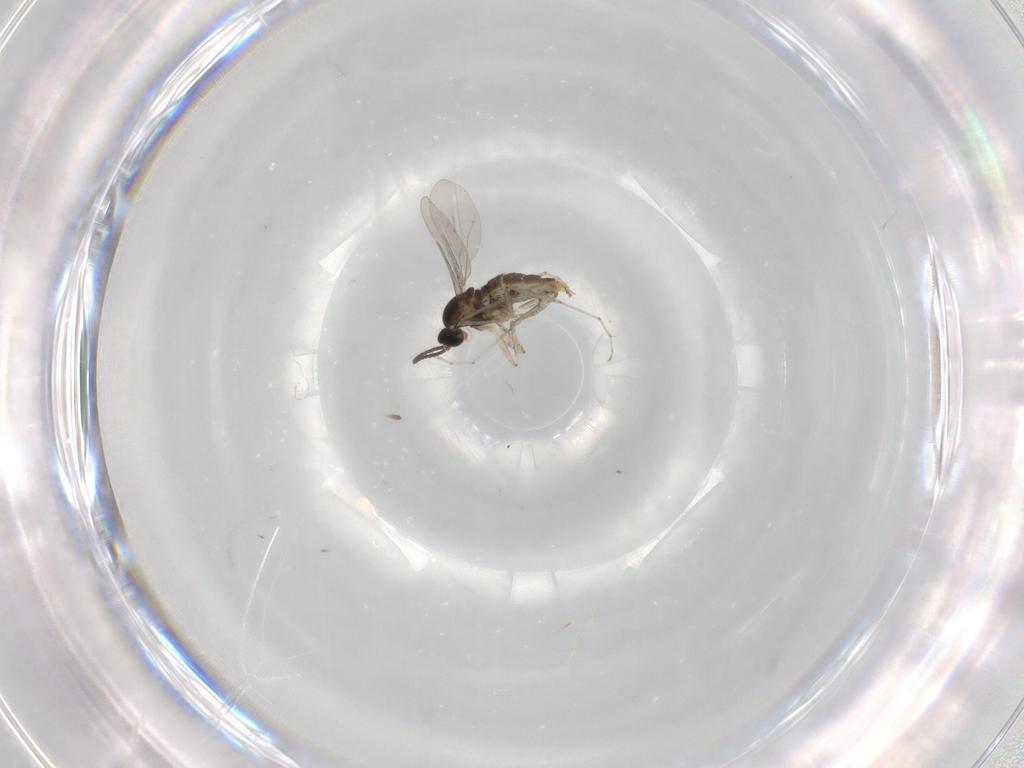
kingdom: Animalia
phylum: Arthropoda
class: Insecta
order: Diptera
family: Cecidomyiidae
